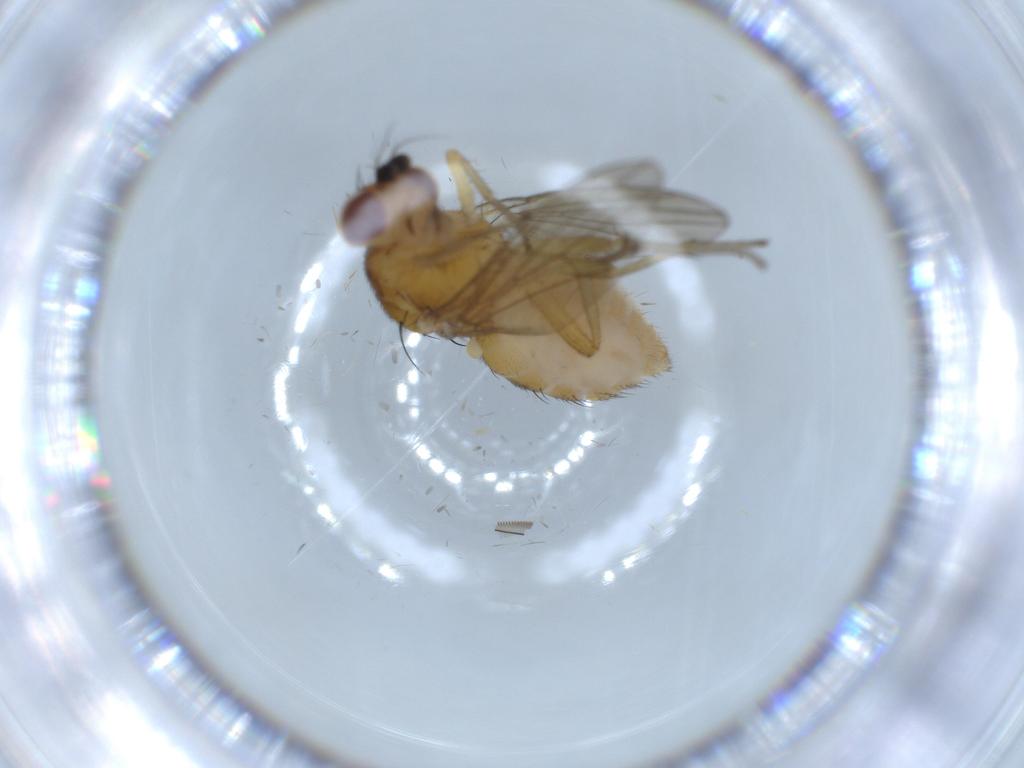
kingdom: Animalia
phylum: Arthropoda
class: Insecta
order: Diptera
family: Lauxaniidae
